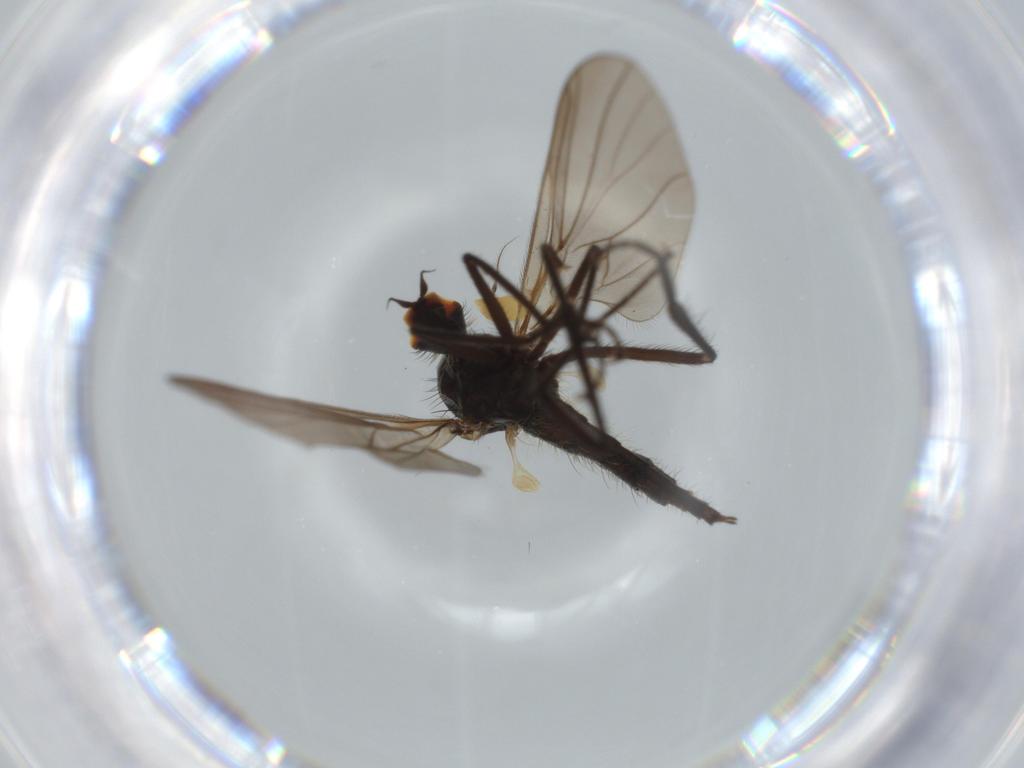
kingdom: Animalia
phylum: Arthropoda
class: Insecta
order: Diptera
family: Hybotidae
